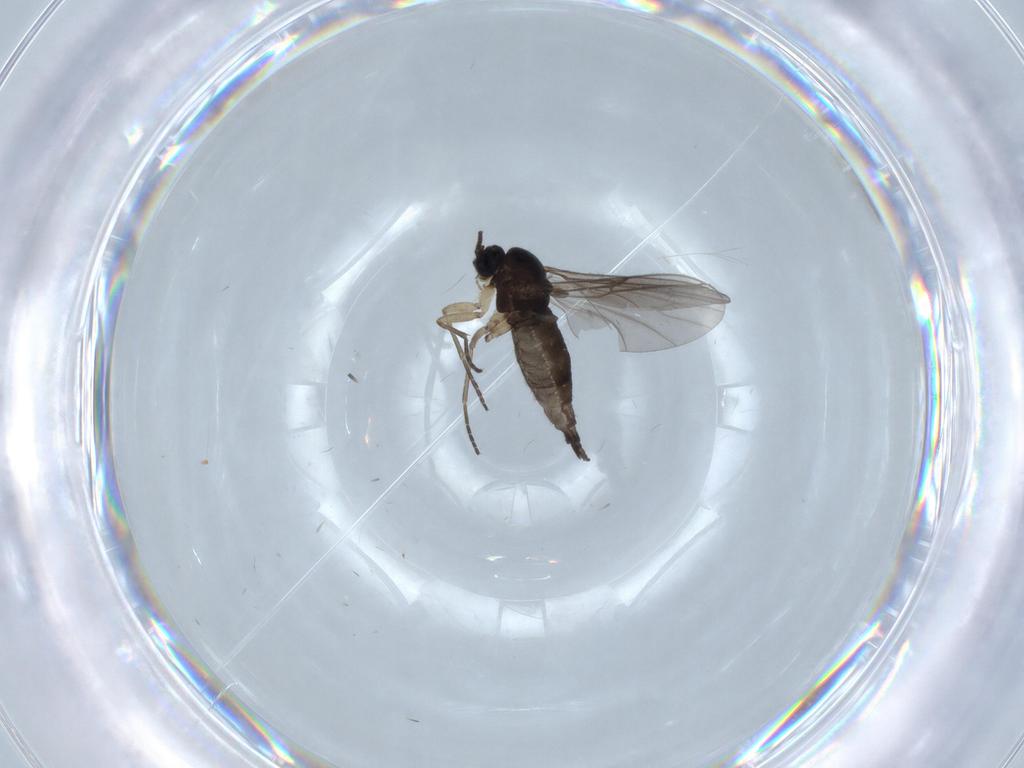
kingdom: Animalia
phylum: Arthropoda
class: Insecta
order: Diptera
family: Sciaridae
